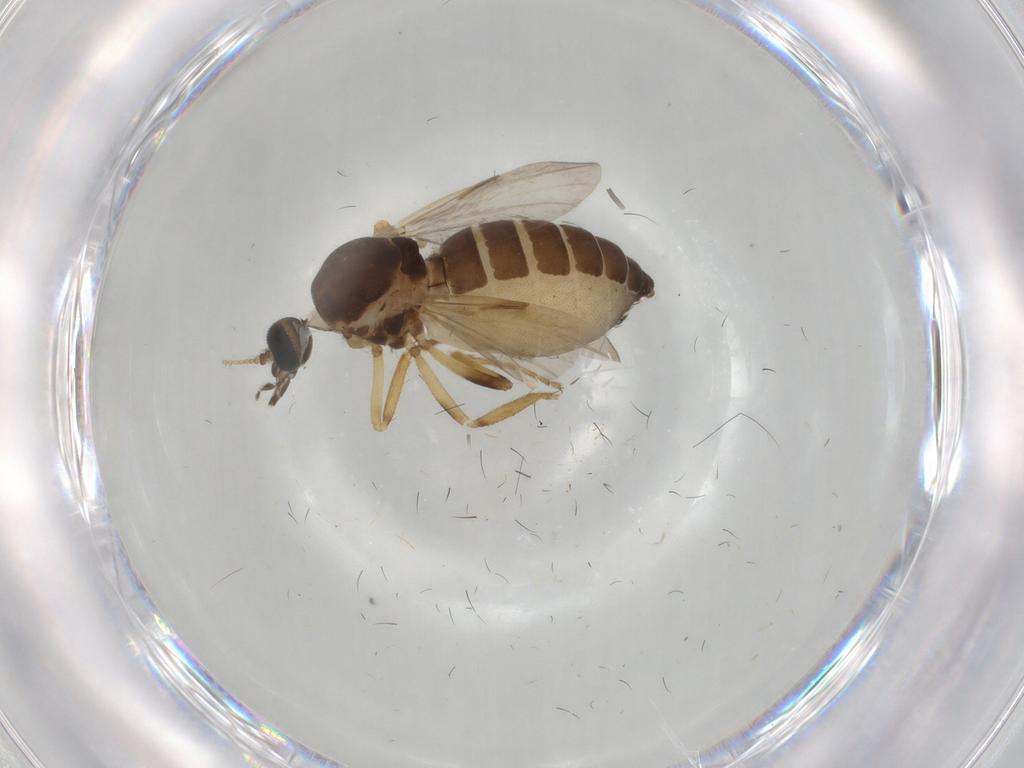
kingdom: Animalia
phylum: Arthropoda
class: Insecta
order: Diptera
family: Ceratopogonidae
